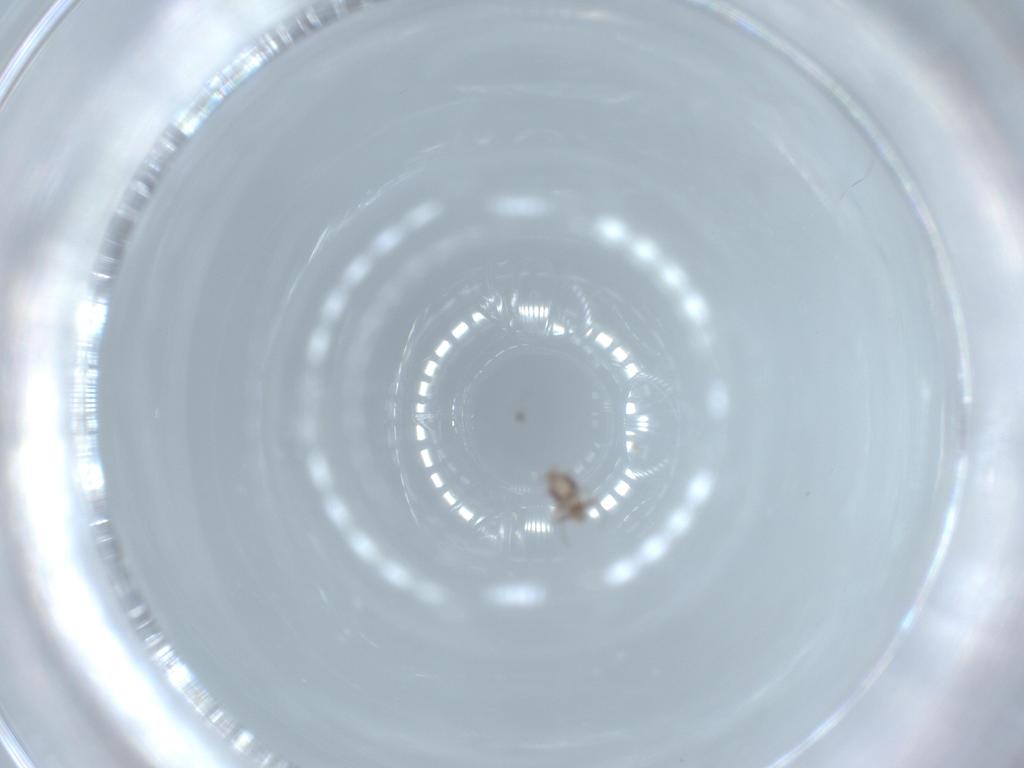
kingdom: Animalia
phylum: Arthropoda
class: Insecta
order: Psocodea
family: Lepidopsocidae
